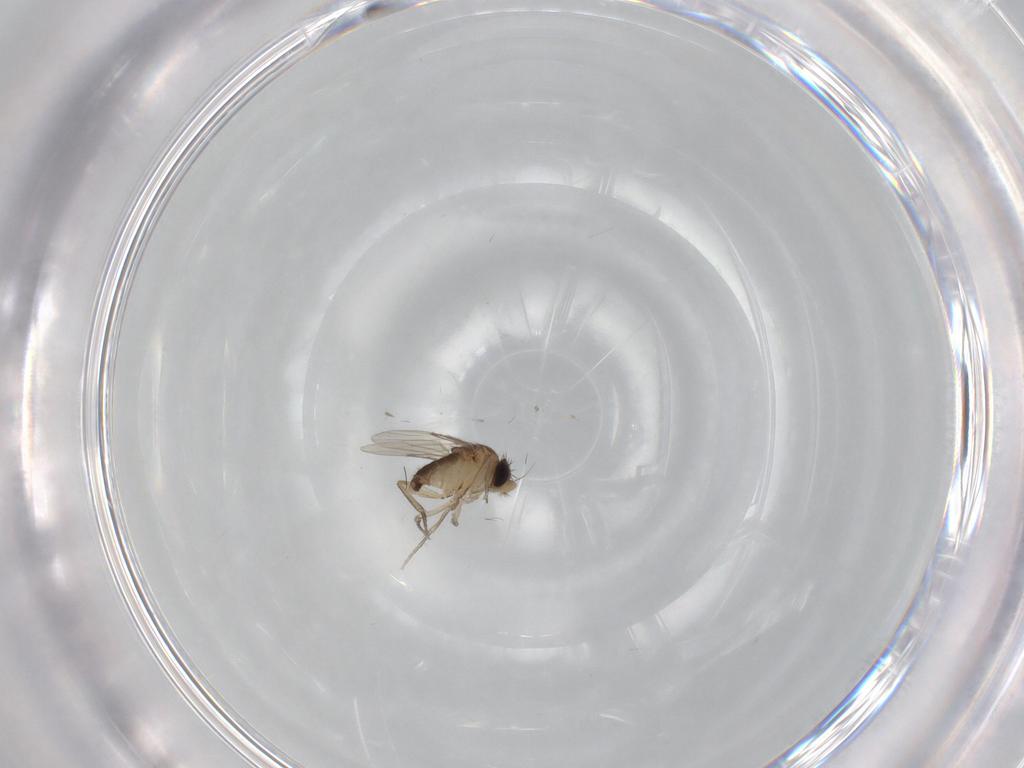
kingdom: Animalia
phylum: Arthropoda
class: Insecta
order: Diptera
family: Phoridae
